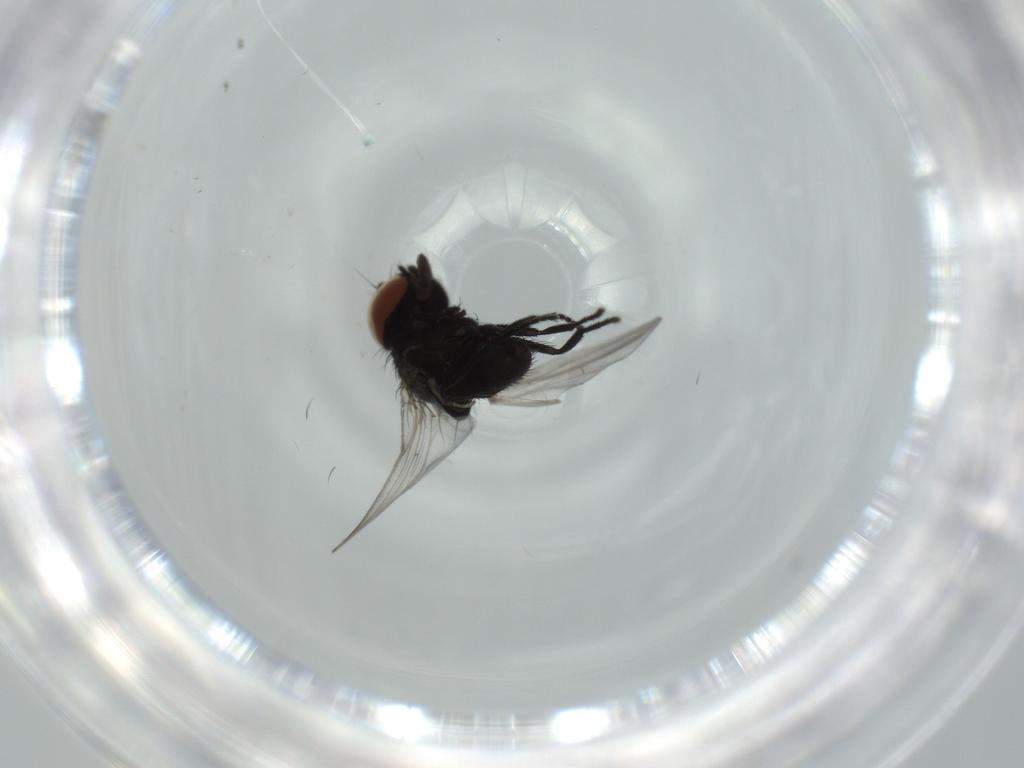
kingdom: Animalia
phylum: Arthropoda
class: Insecta
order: Diptera
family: Milichiidae
